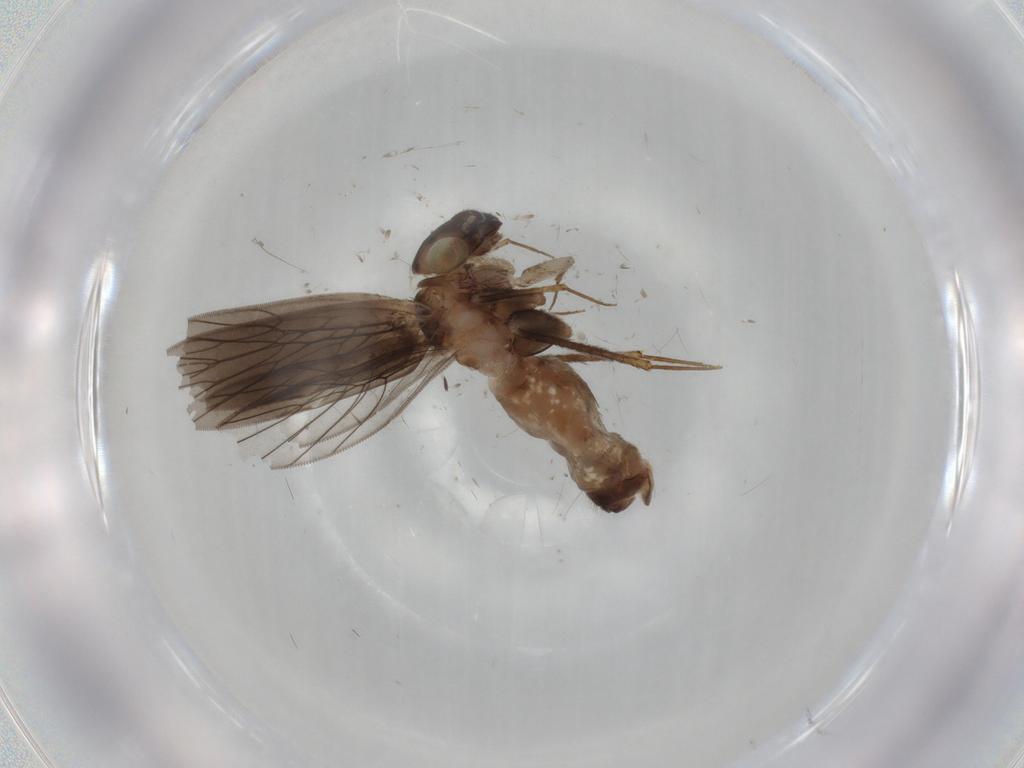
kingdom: Animalia
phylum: Arthropoda
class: Insecta
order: Psocodea
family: Lepidopsocidae
